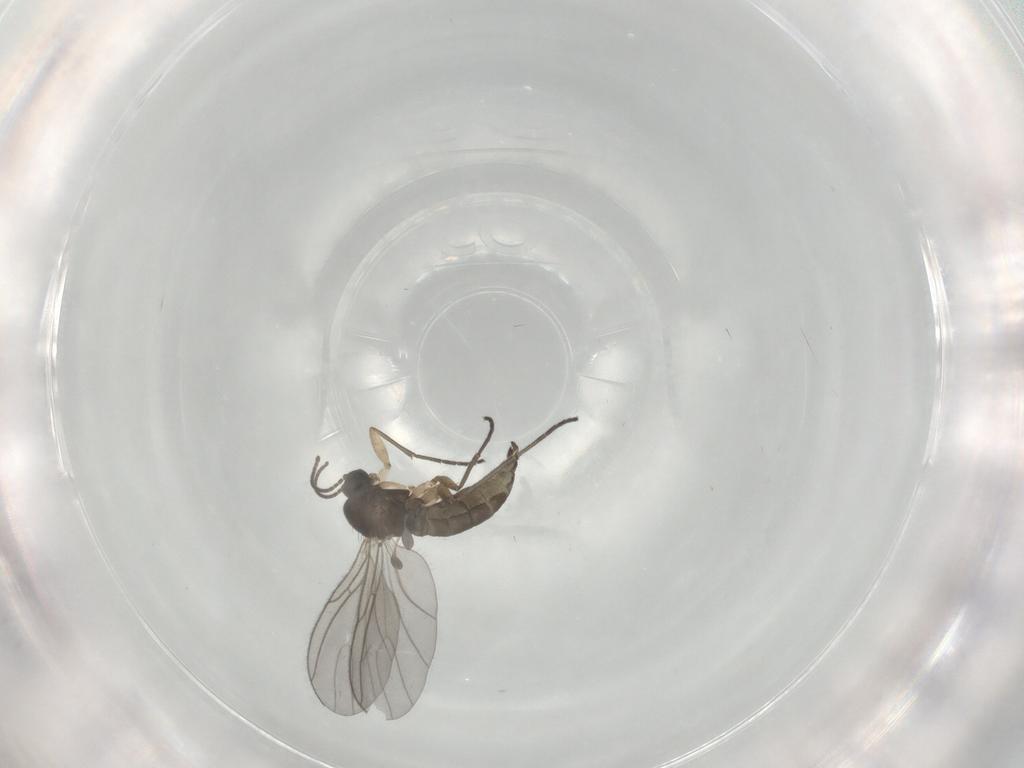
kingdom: Animalia
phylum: Arthropoda
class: Insecta
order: Diptera
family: Sciaridae
